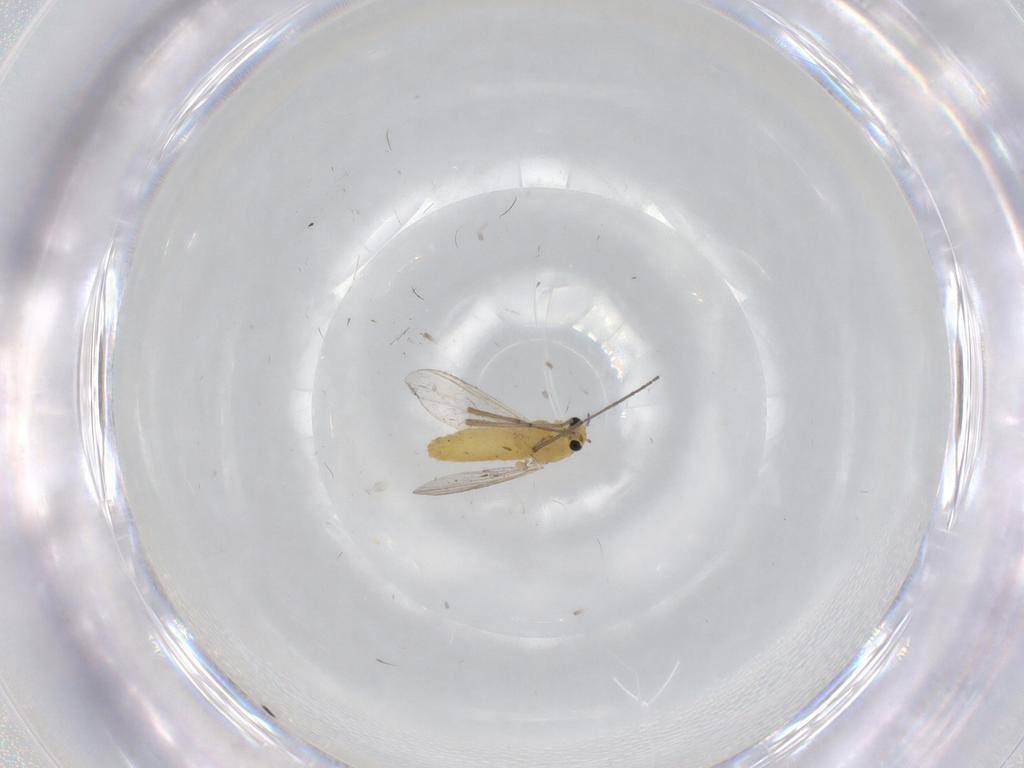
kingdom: Animalia
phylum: Arthropoda
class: Insecta
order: Diptera
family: Chironomidae
